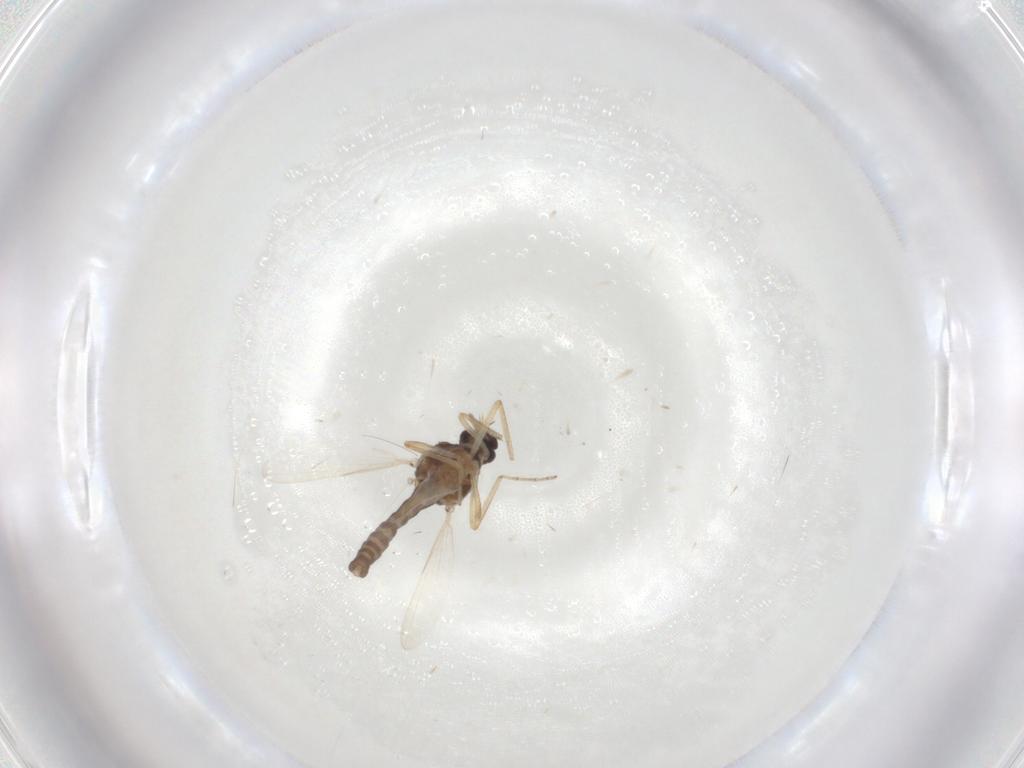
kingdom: Animalia
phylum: Arthropoda
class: Insecta
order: Diptera
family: Ceratopogonidae
